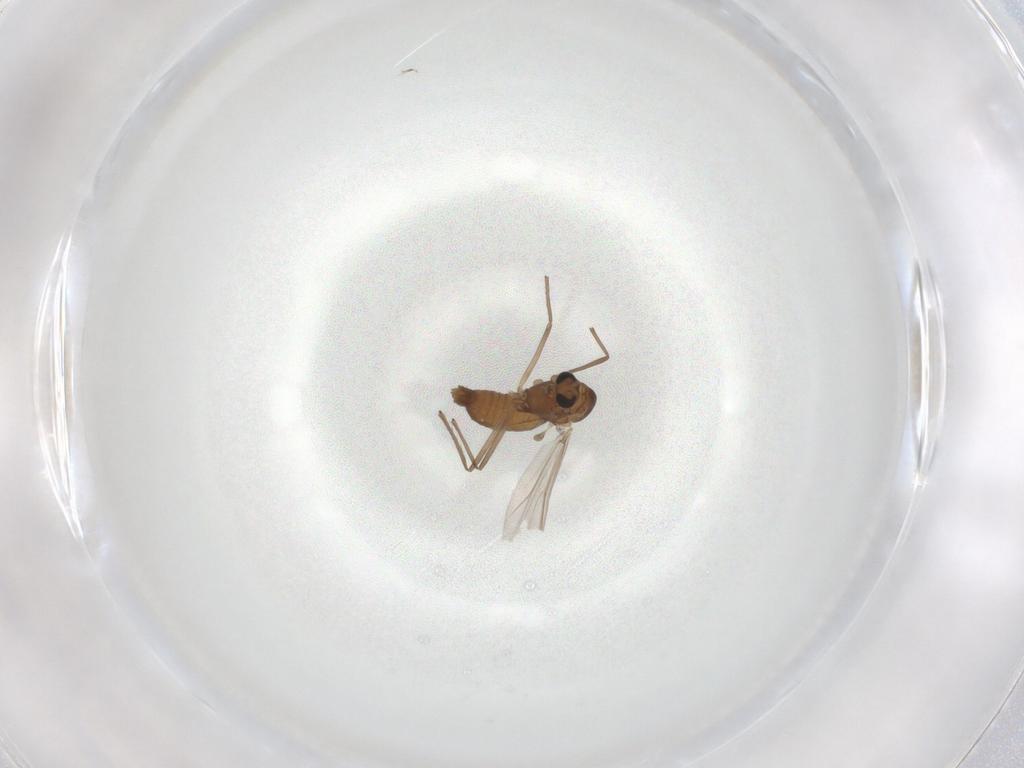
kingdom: Animalia
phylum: Arthropoda
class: Insecta
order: Diptera
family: Chironomidae
